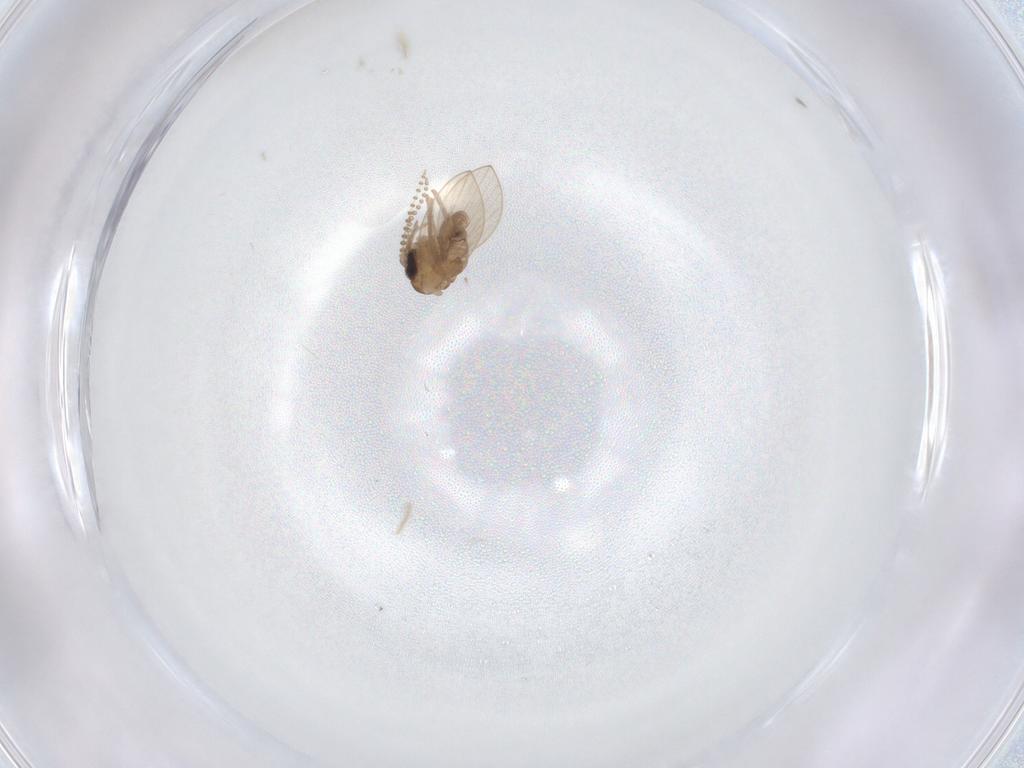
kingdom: Animalia
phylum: Arthropoda
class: Insecta
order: Diptera
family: Psychodidae
